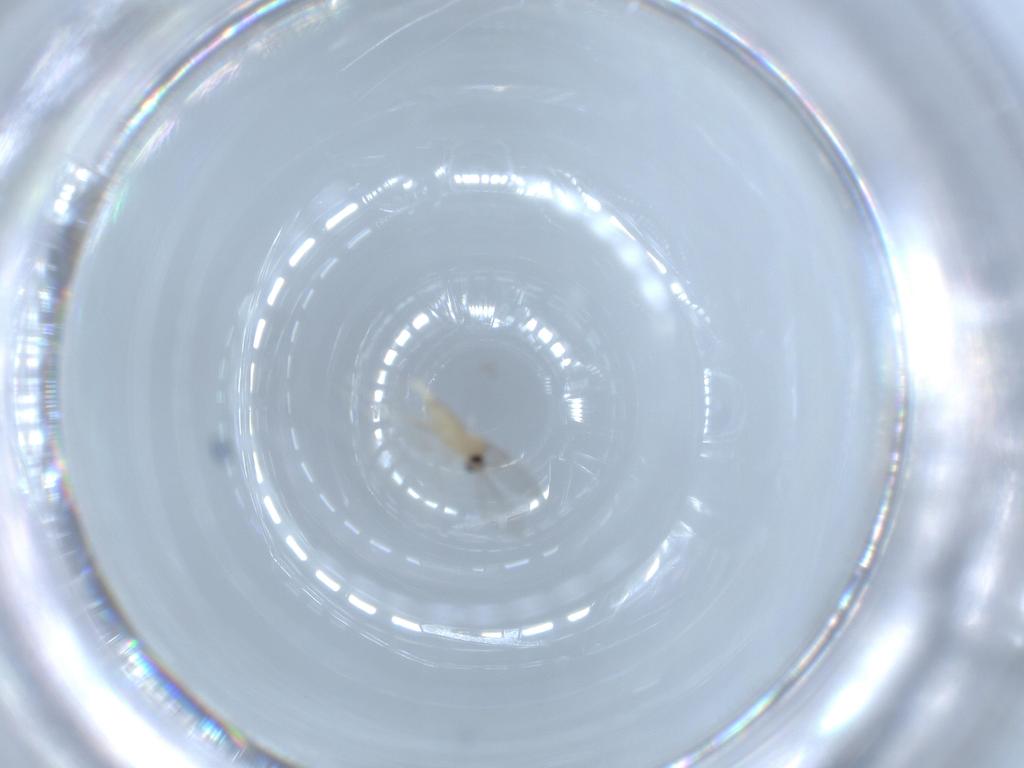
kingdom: Animalia
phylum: Arthropoda
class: Insecta
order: Diptera
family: Cecidomyiidae
